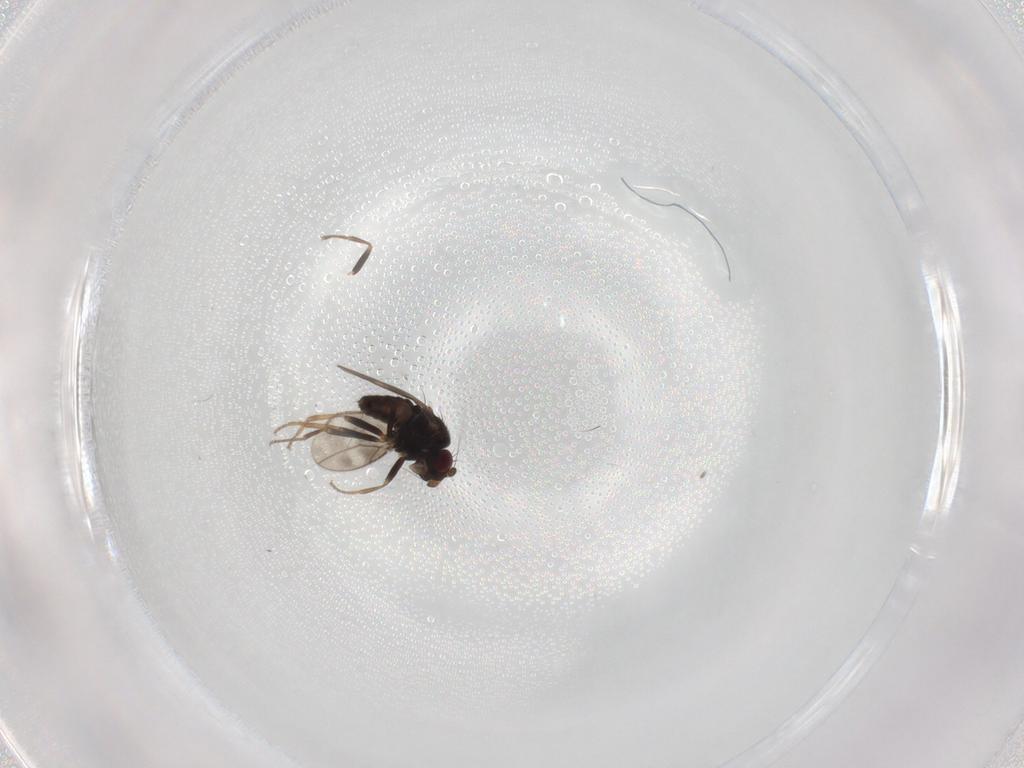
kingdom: Animalia
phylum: Arthropoda
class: Insecta
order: Diptera
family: Sphaeroceridae
